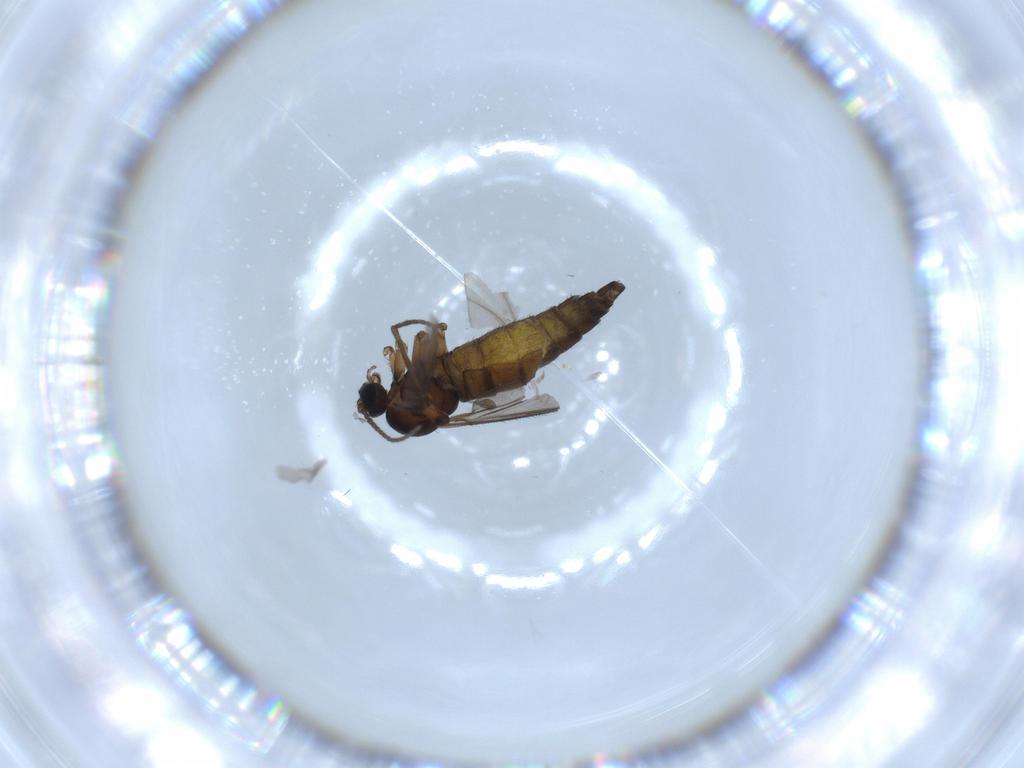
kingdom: Animalia
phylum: Arthropoda
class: Insecta
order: Diptera
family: Sciaridae
